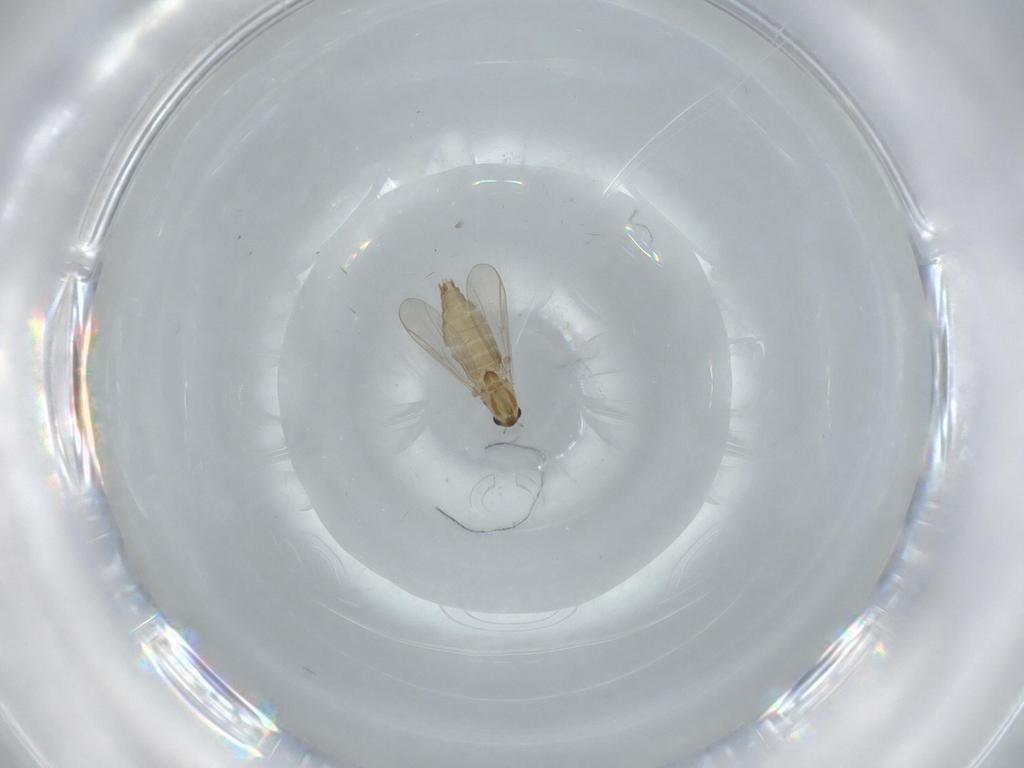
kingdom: Animalia
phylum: Arthropoda
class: Insecta
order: Diptera
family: Chironomidae
